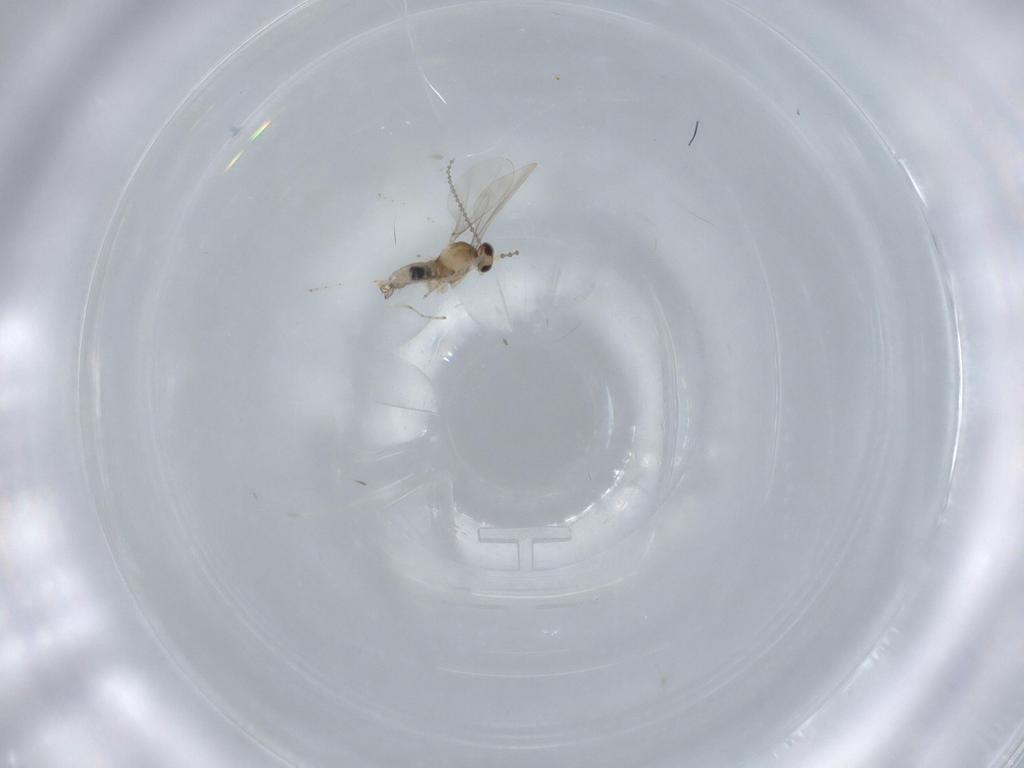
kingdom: Animalia
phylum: Arthropoda
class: Insecta
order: Diptera
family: Cecidomyiidae
